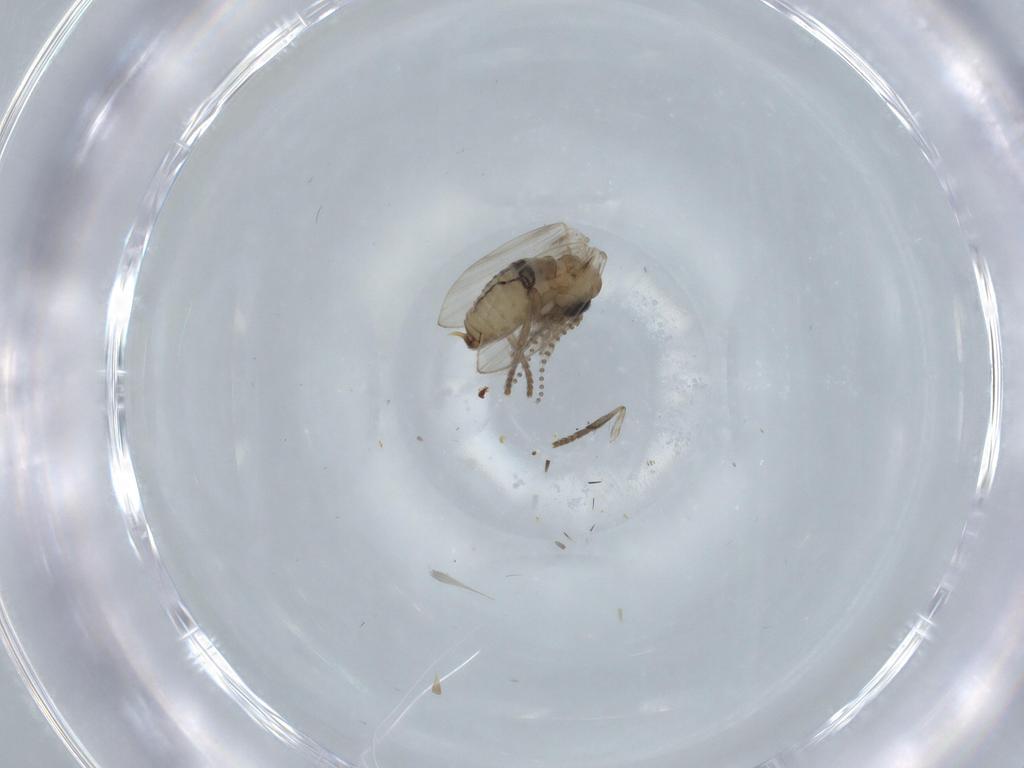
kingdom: Animalia
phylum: Arthropoda
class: Insecta
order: Diptera
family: Psychodidae
